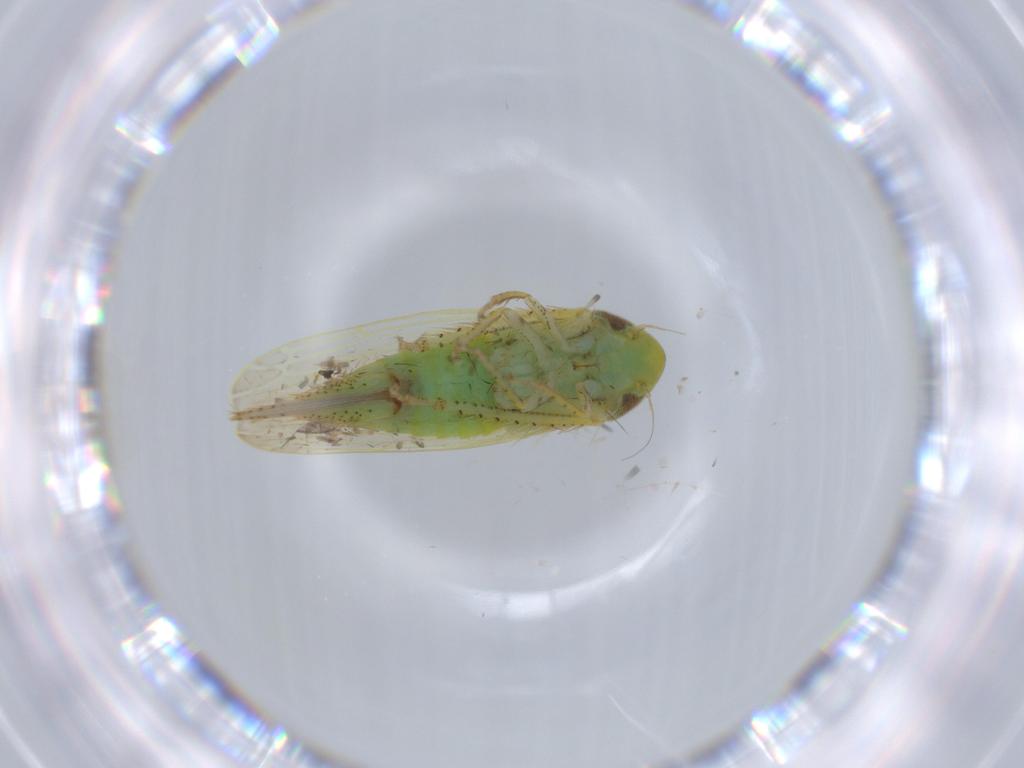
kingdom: Animalia
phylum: Arthropoda
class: Insecta
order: Hemiptera
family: Cicadellidae
